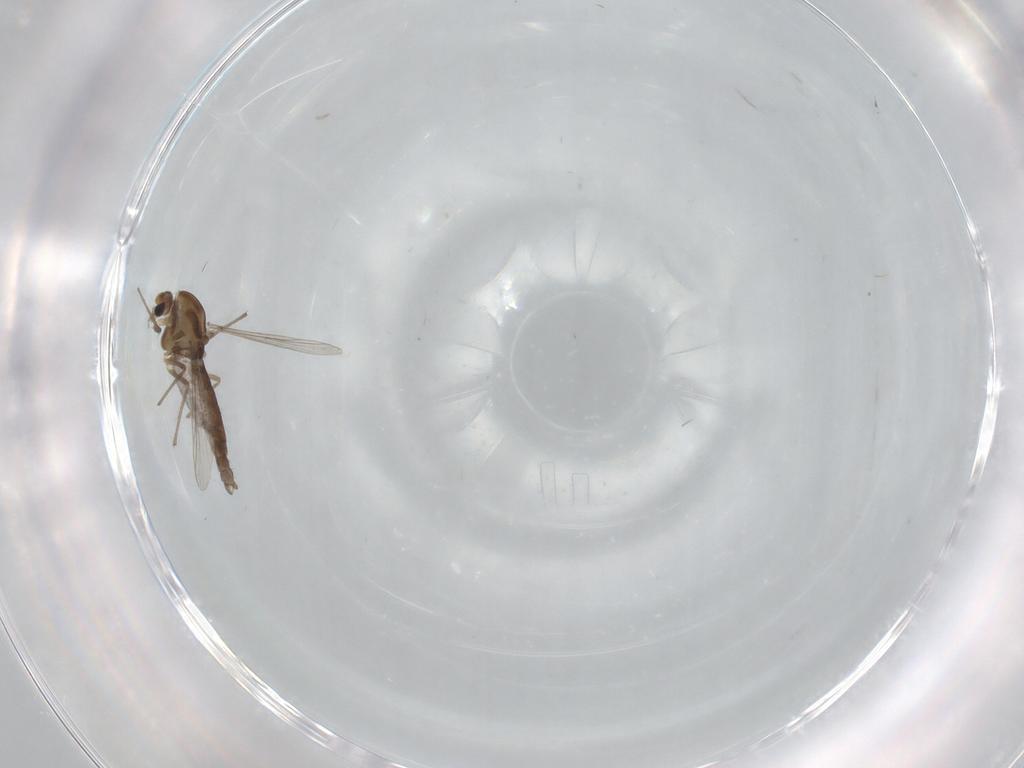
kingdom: Animalia
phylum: Arthropoda
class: Insecta
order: Diptera
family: Chironomidae
